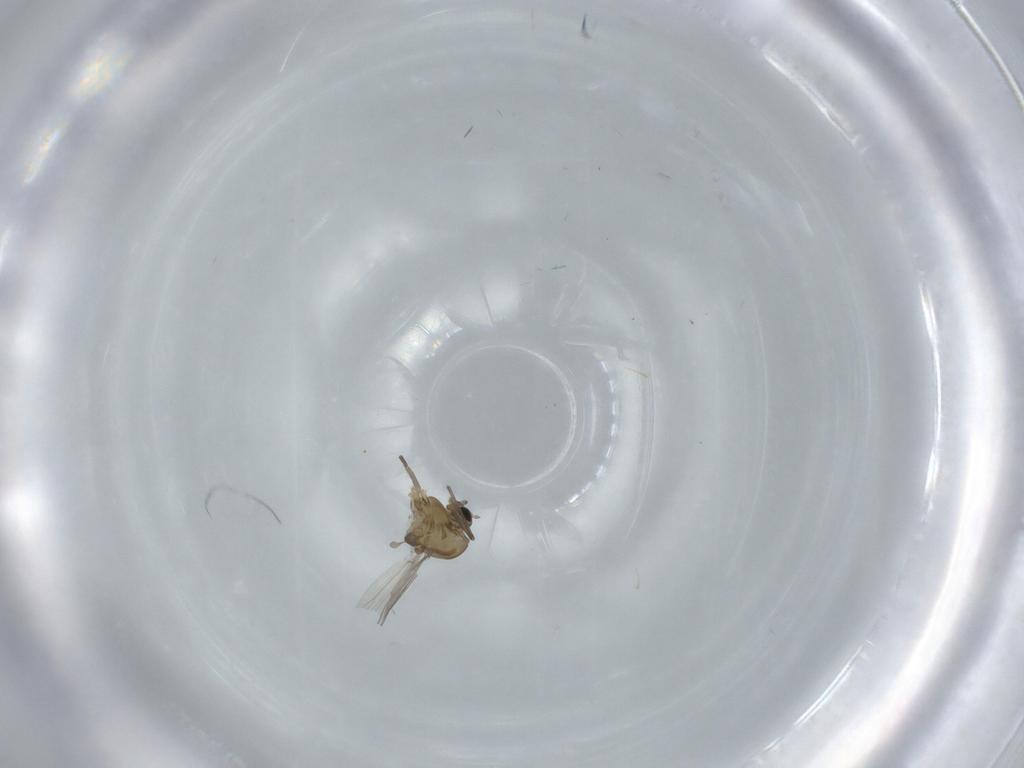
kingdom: Animalia
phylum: Arthropoda
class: Insecta
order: Diptera
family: Chironomidae
